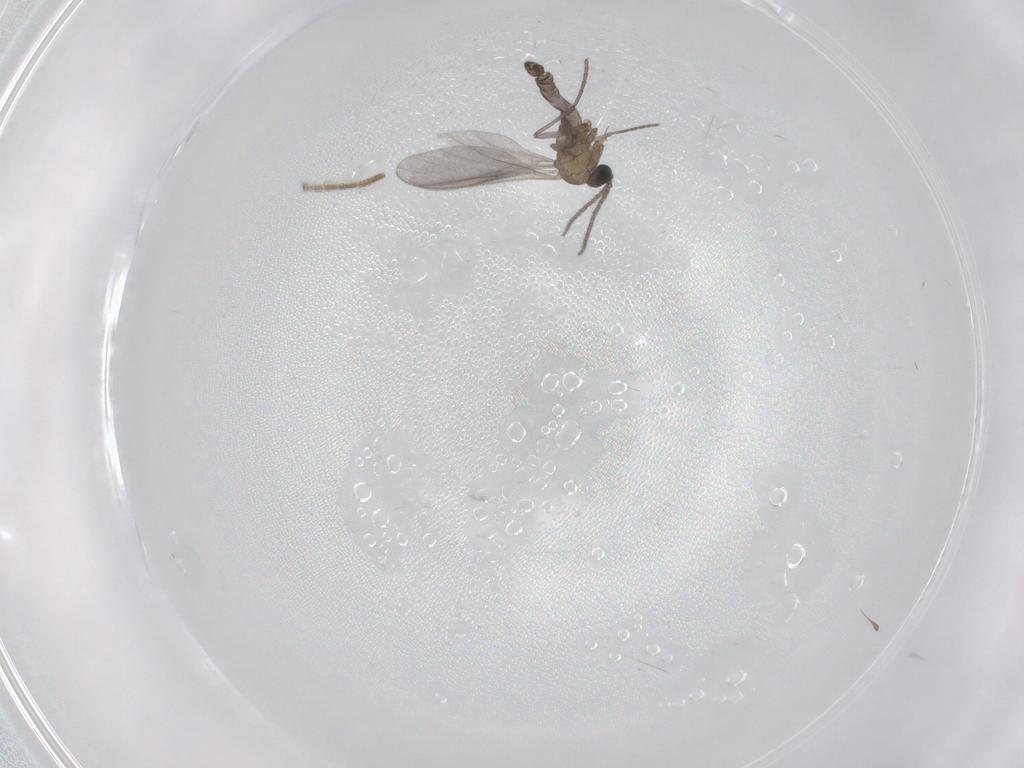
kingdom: Animalia
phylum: Arthropoda
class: Insecta
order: Diptera
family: Sciaridae
